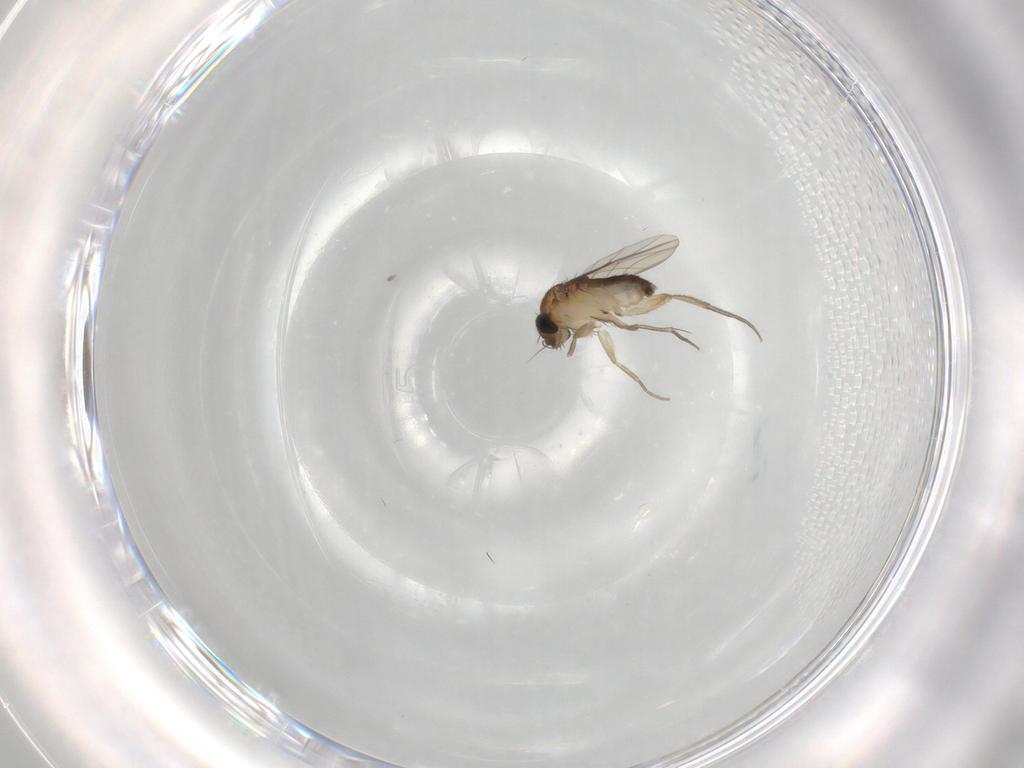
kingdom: Animalia
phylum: Arthropoda
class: Insecta
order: Diptera
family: Phoridae
